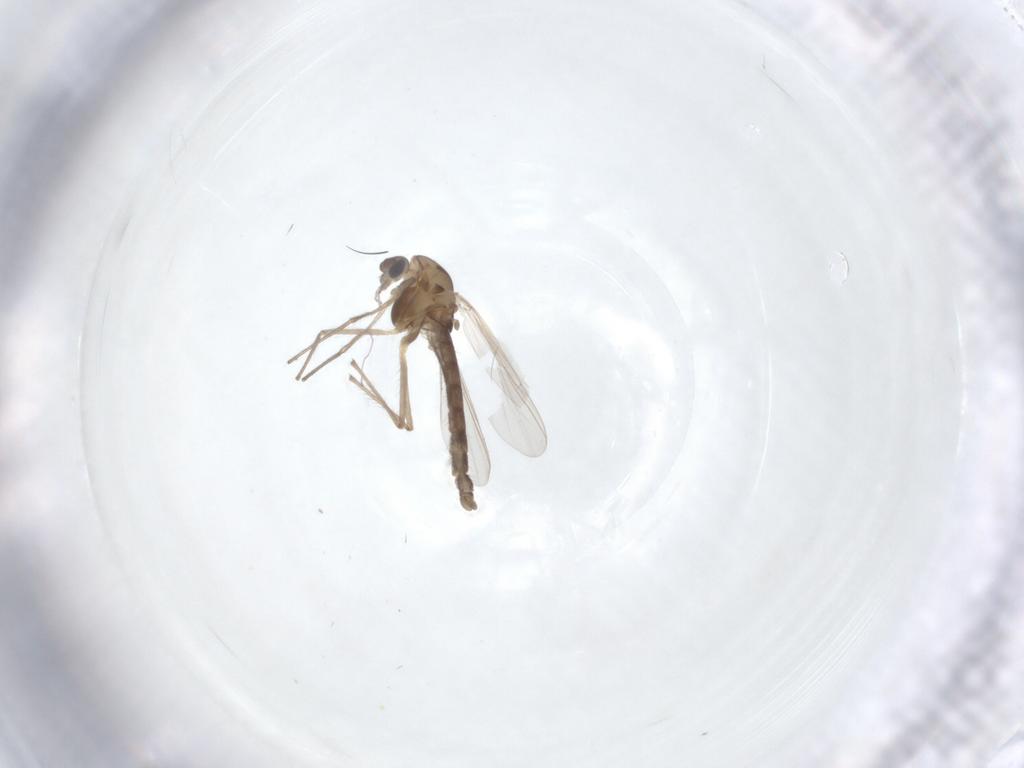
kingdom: Animalia
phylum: Arthropoda
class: Insecta
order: Diptera
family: Chironomidae
